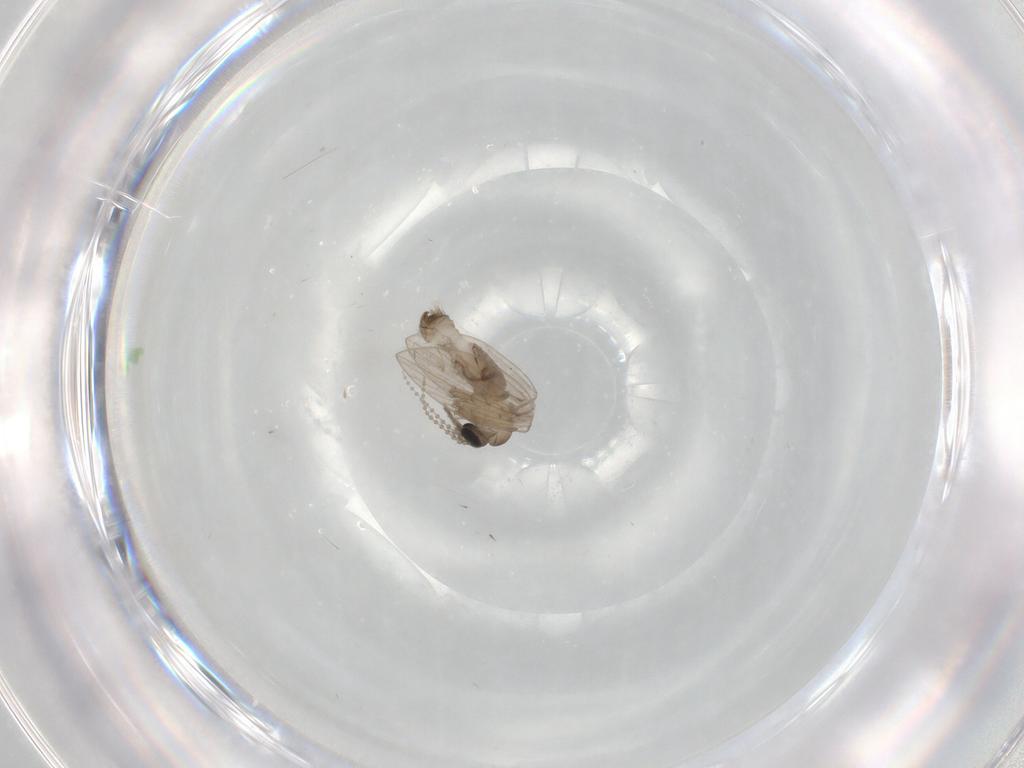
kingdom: Animalia
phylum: Arthropoda
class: Insecta
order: Diptera
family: Psychodidae
